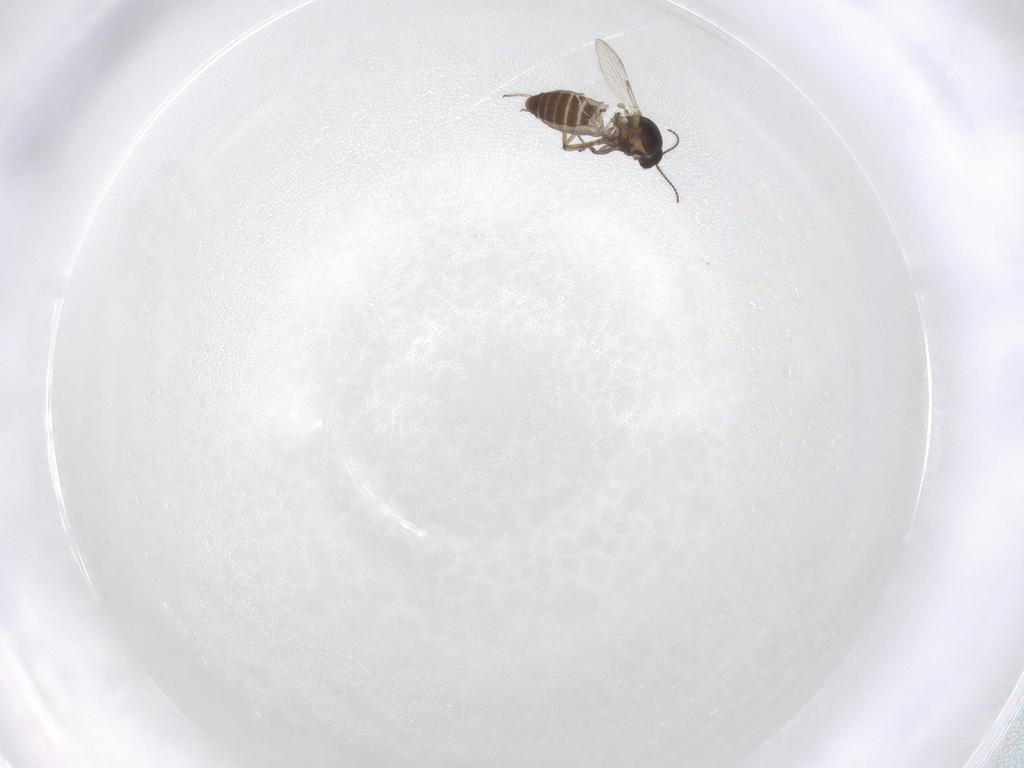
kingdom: Animalia
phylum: Arthropoda
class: Insecta
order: Diptera
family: Ceratopogonidae
